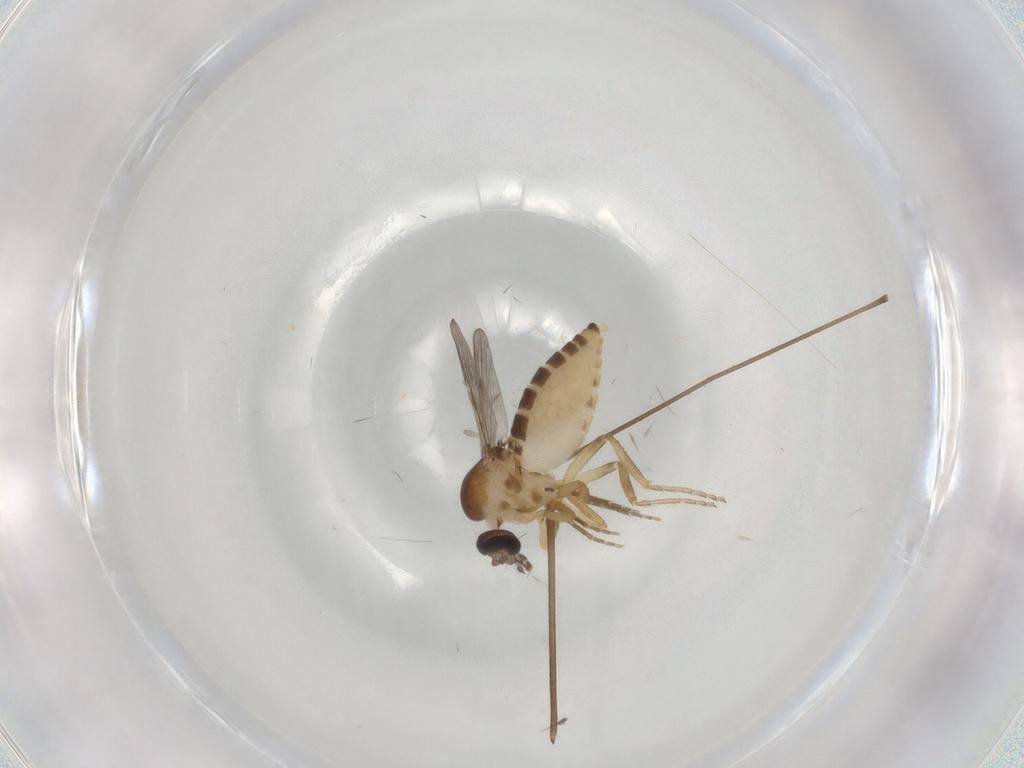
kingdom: Animalia
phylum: Arthropoda
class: Insecta
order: Diptera
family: Ceratopogonidae
